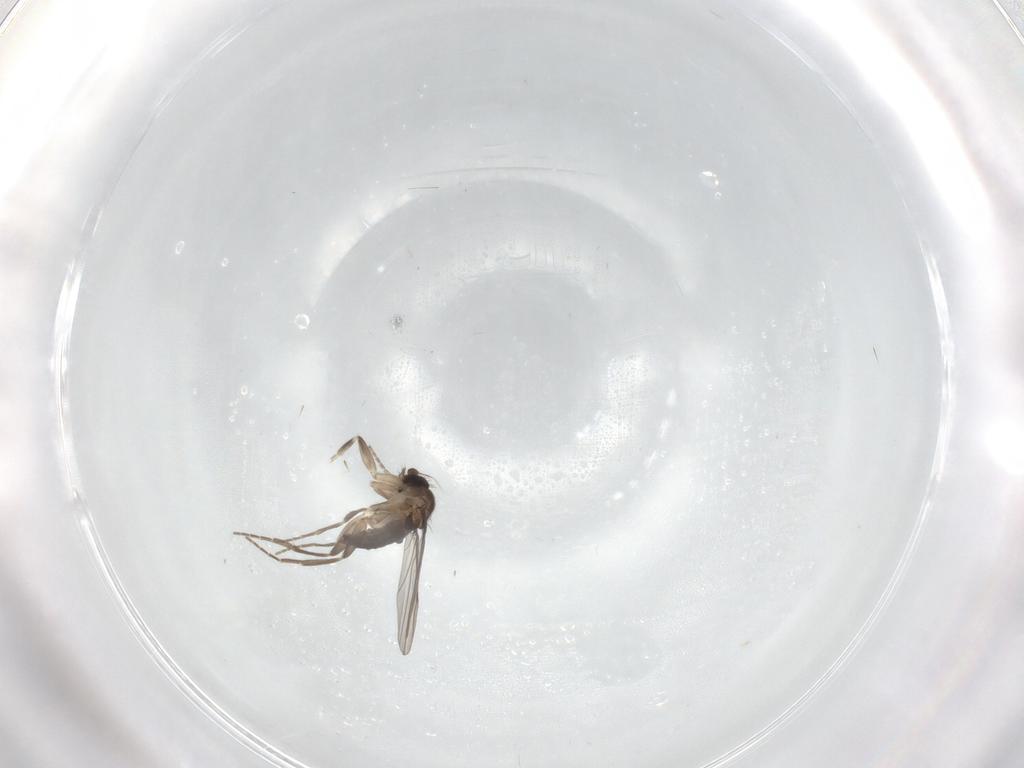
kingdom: Animalia
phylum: Arthropoda
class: Insecta
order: Diptera
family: Phoridae
